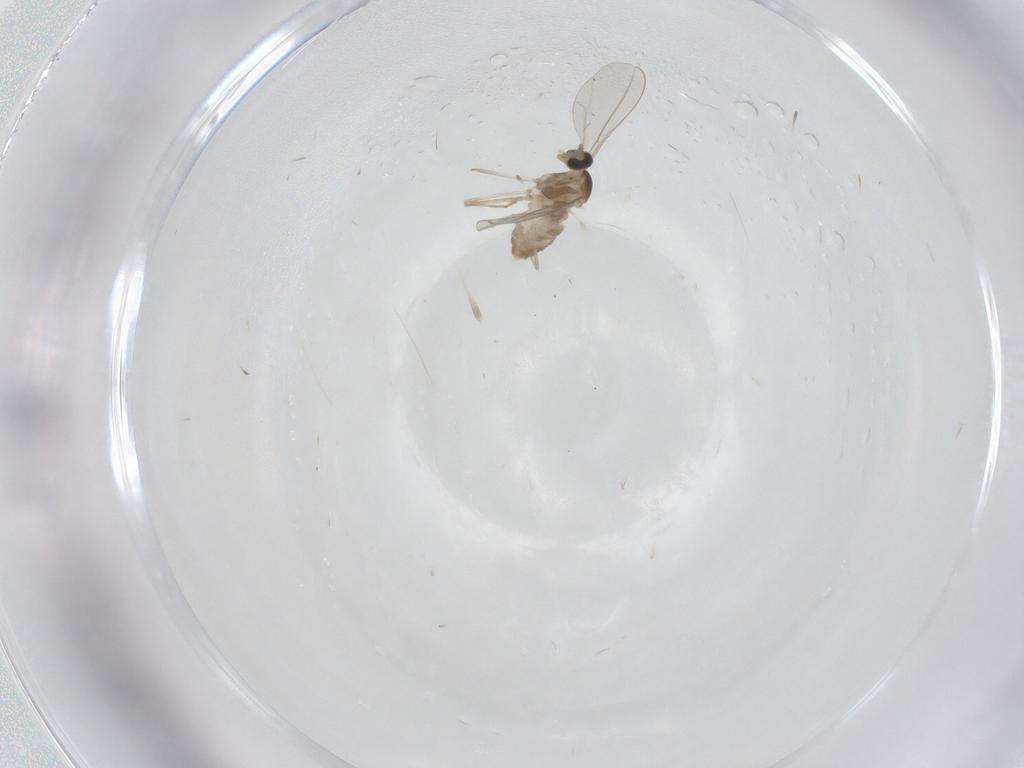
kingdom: Animalia
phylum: Arthropoda
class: Insecta
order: Diptera
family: Cecidomyiidae
